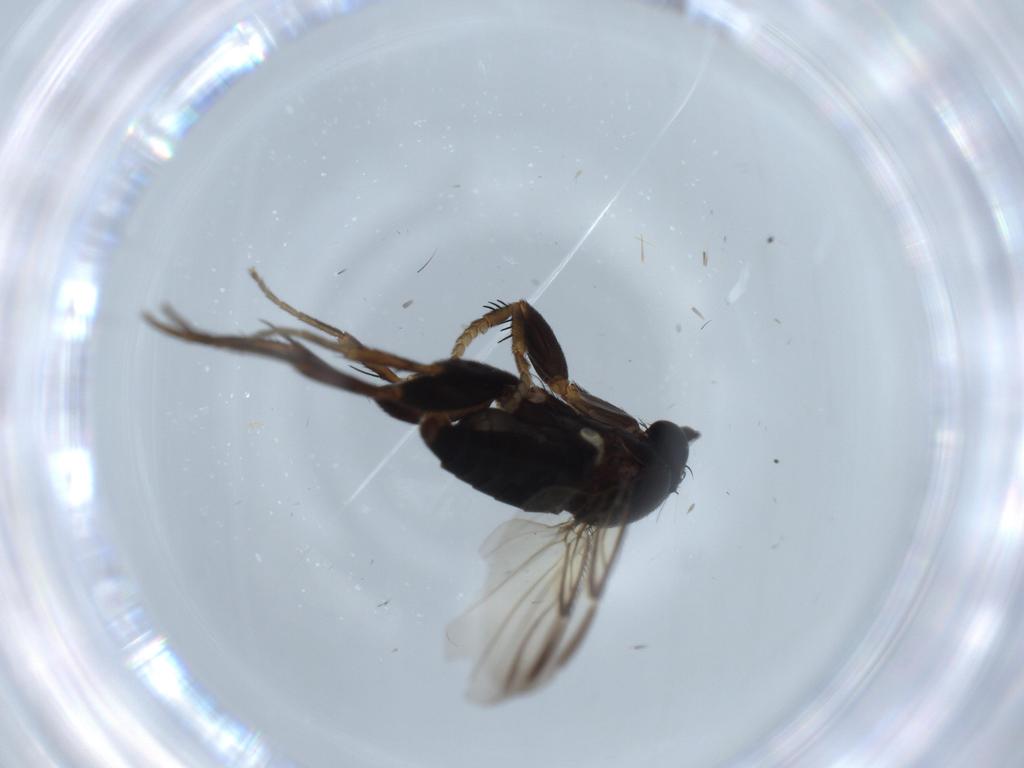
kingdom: Animalia
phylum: Arthropoda
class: Insecta
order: Diptera
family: Phoridae
